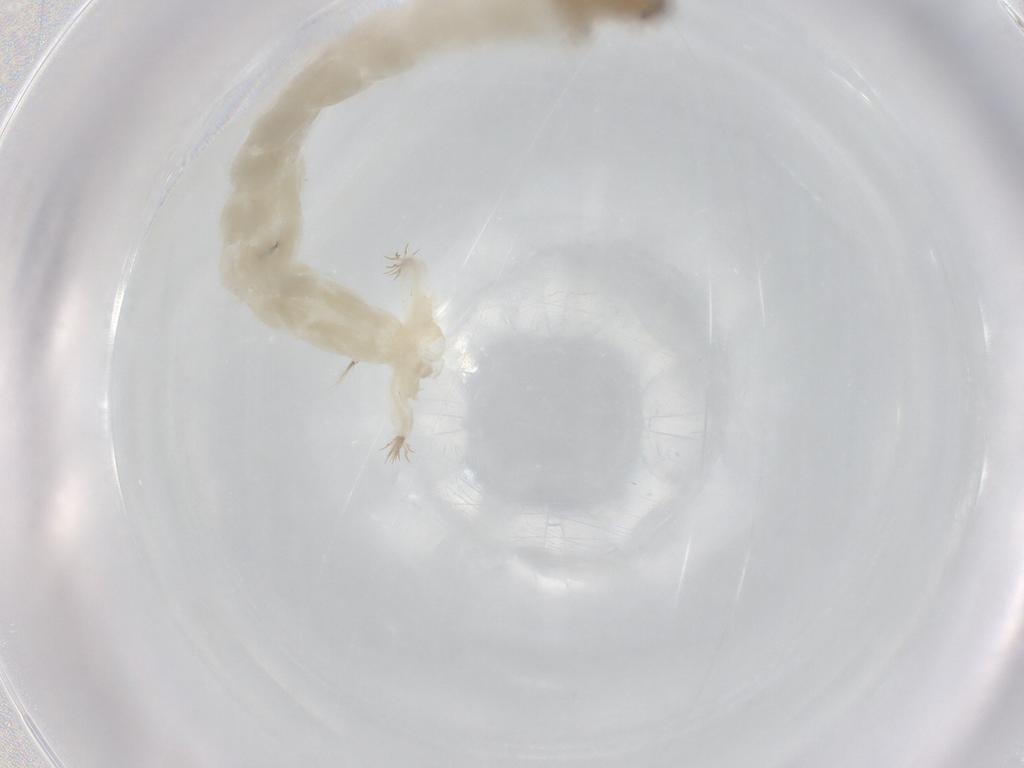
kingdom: Animalia
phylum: Arthropoda
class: Insecta
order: Diptera
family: Chironomidae
